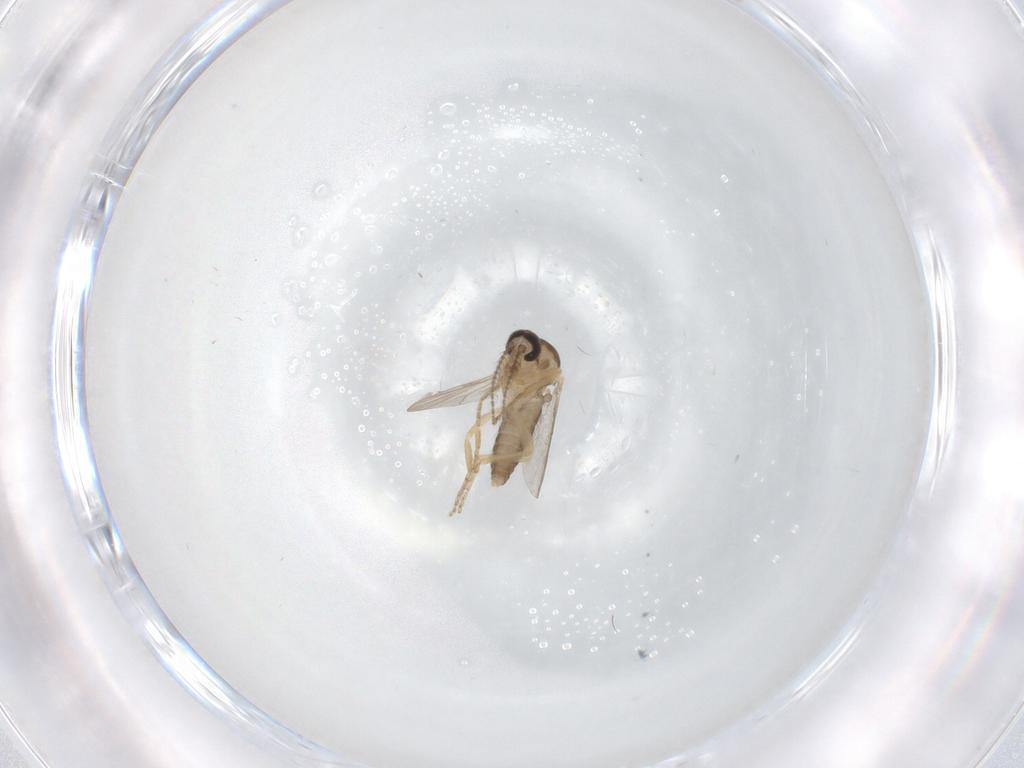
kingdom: Animalia
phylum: Arthropoda
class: Insecta
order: Diptera
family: Ceratopogonidae
